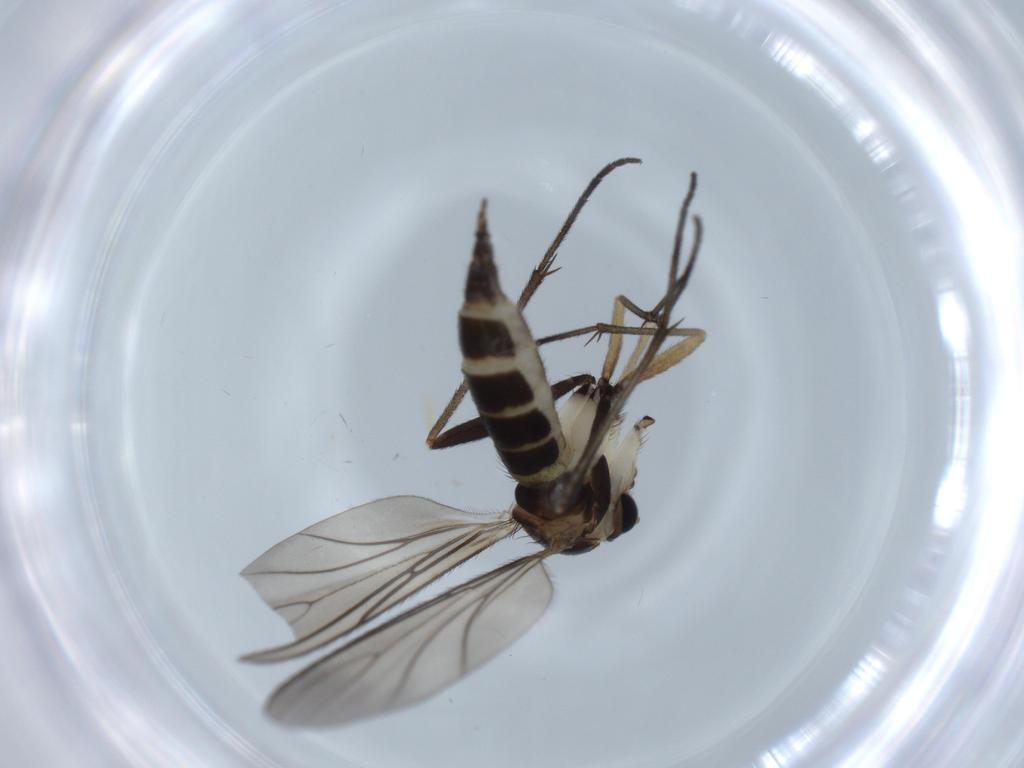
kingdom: Animalia
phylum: Arthropoda
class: Insecta
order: Diptera
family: Sciaridae
